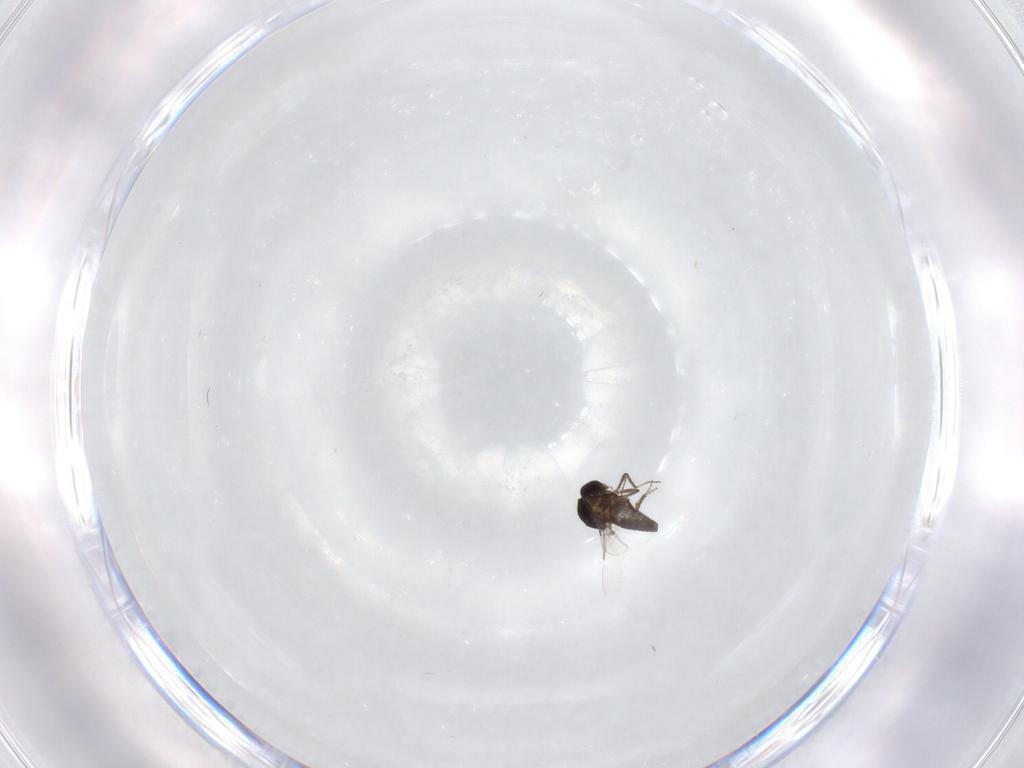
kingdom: Animalia
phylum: Arthropoda
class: Insecta
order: Diptera
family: Ceratopogonidae
